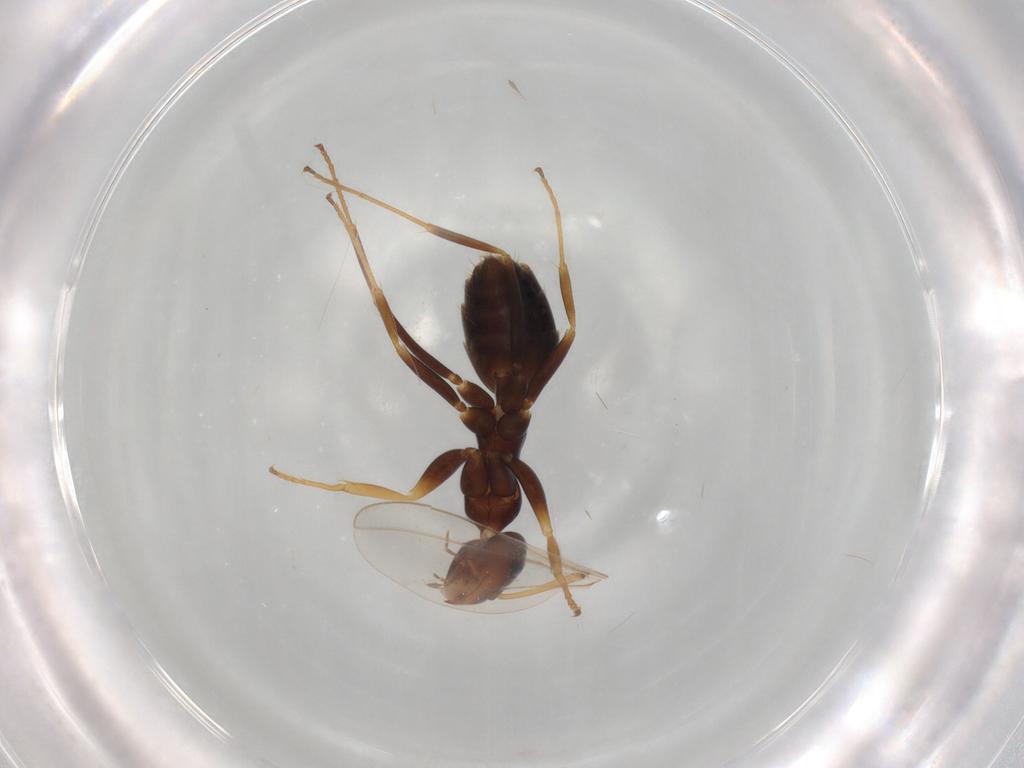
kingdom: Animalia
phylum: Arthropoda
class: Insecta
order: Hymenoptera
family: Formicidae
